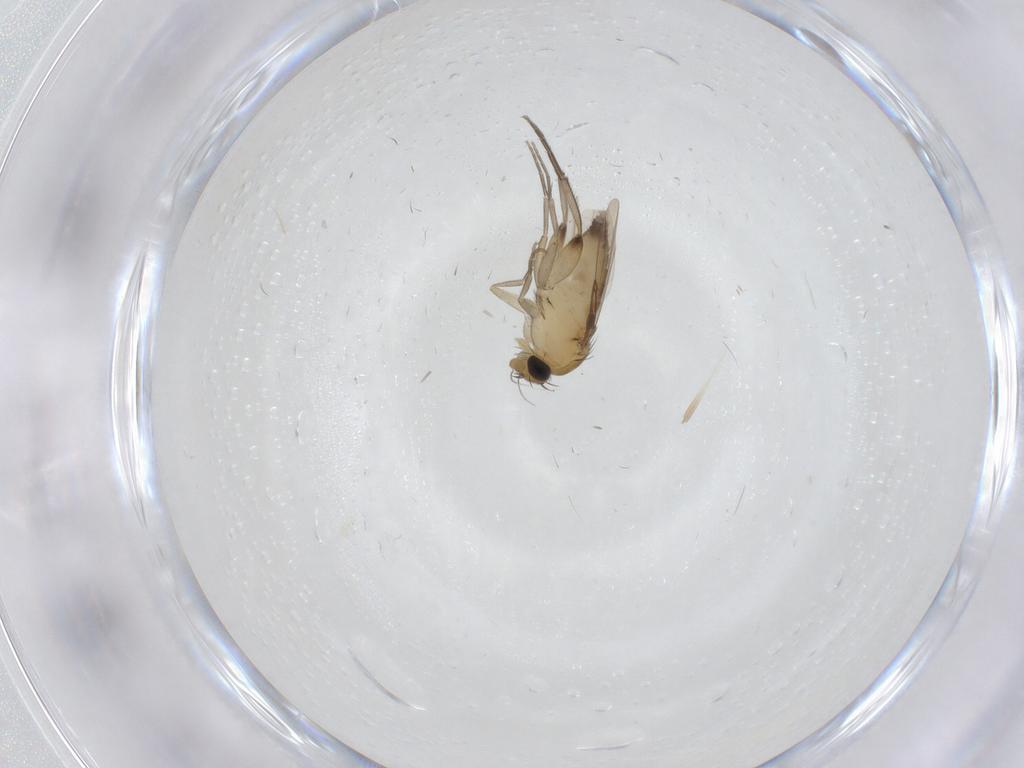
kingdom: Animalia
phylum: Arthropoda
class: Insecta
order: Diptera
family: Phoridae
